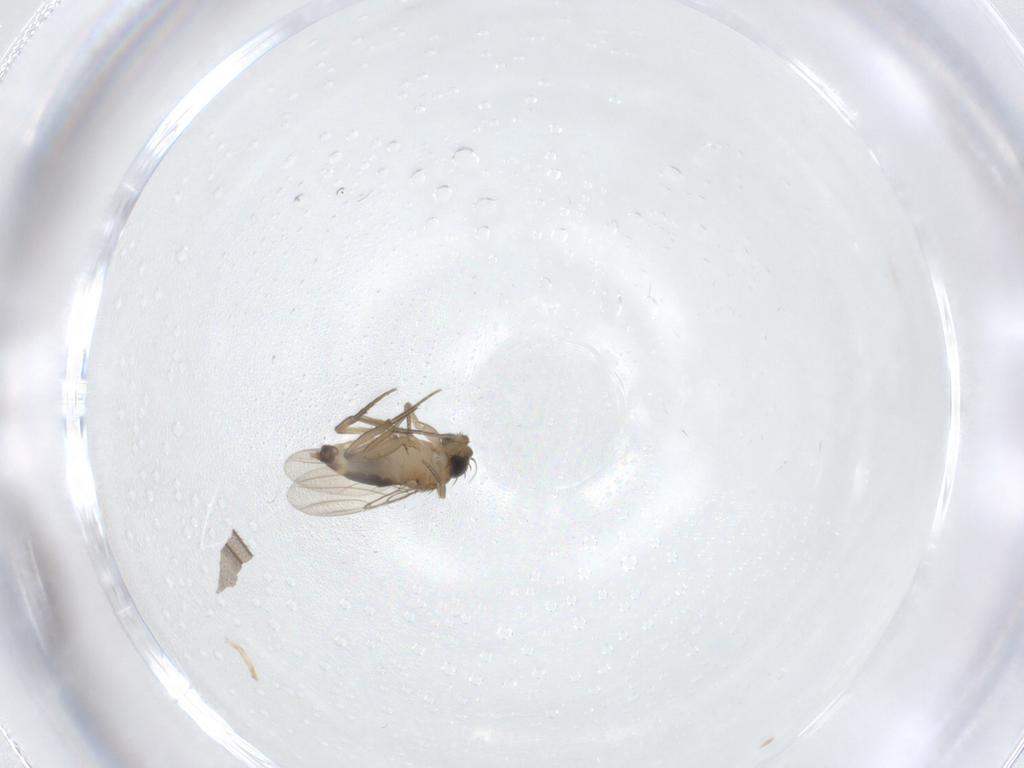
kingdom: Animalia
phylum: Arthropoda
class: Insecta
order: Diptera
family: Phoridae
